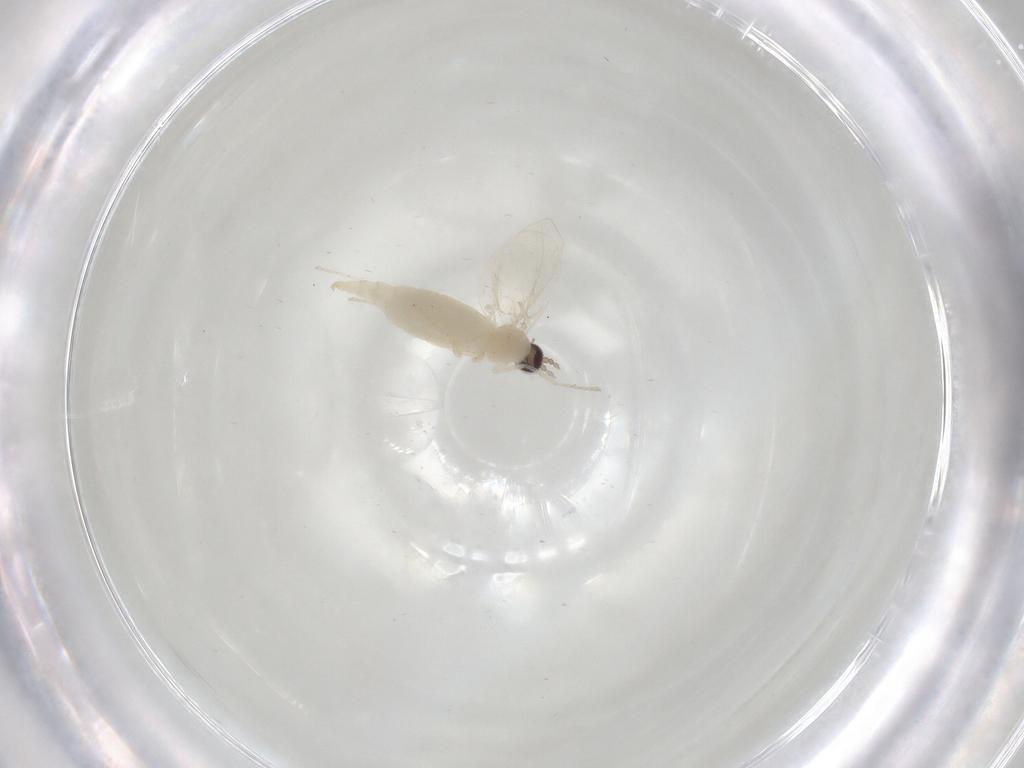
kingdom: Animalia
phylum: Arthropoda
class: Insecta
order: Diptera
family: Cecidomyiidae
